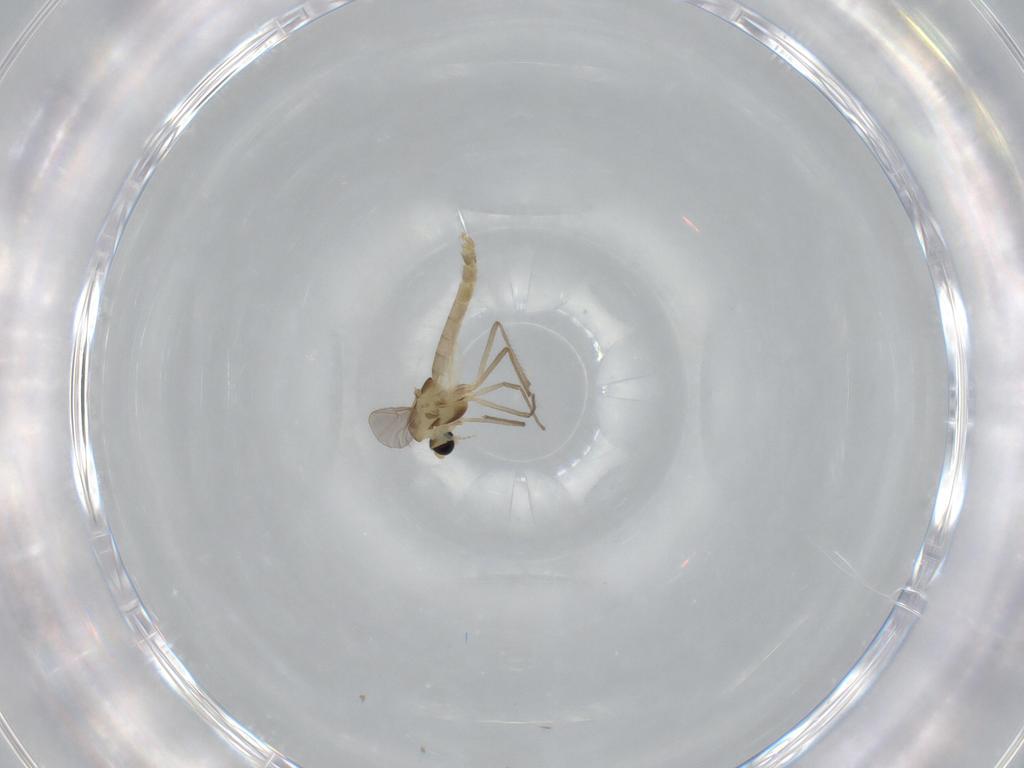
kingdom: Animalia
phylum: Arthropoda
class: Insecta
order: Diptera
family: Chironomidae
